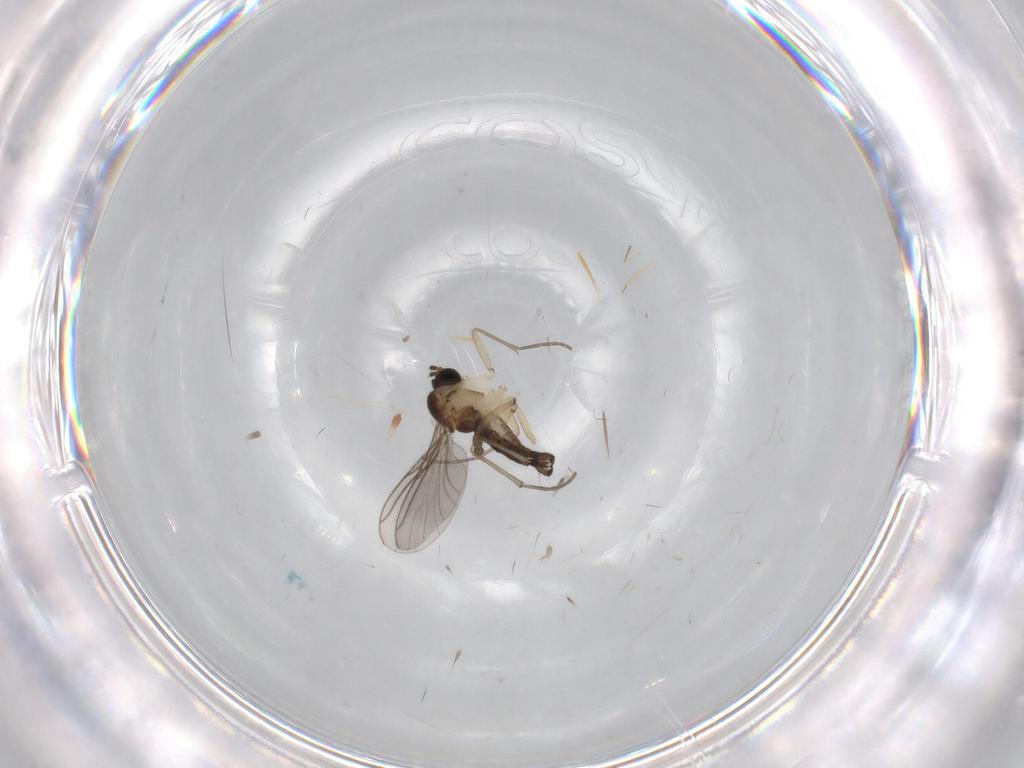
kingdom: Animalia
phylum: Arthropoda
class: Insecta
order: Diptera
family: Sciaridae
